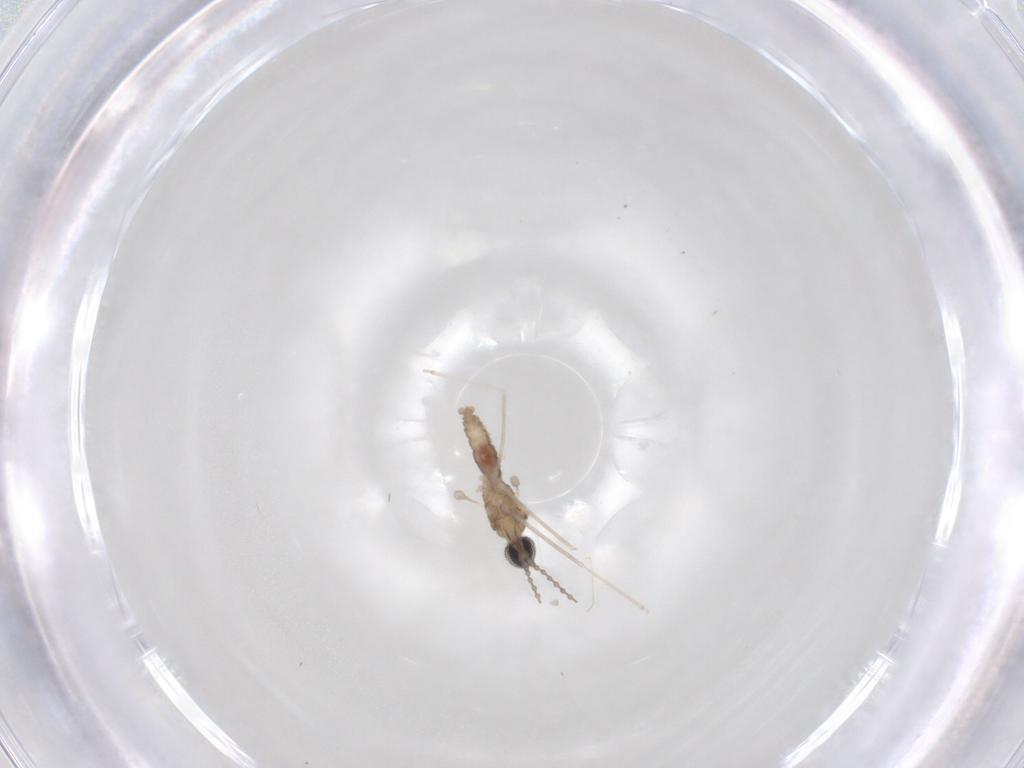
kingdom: Animalia
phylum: Arthropoda
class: Insecta
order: Diptera
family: Cecidomyiidae
